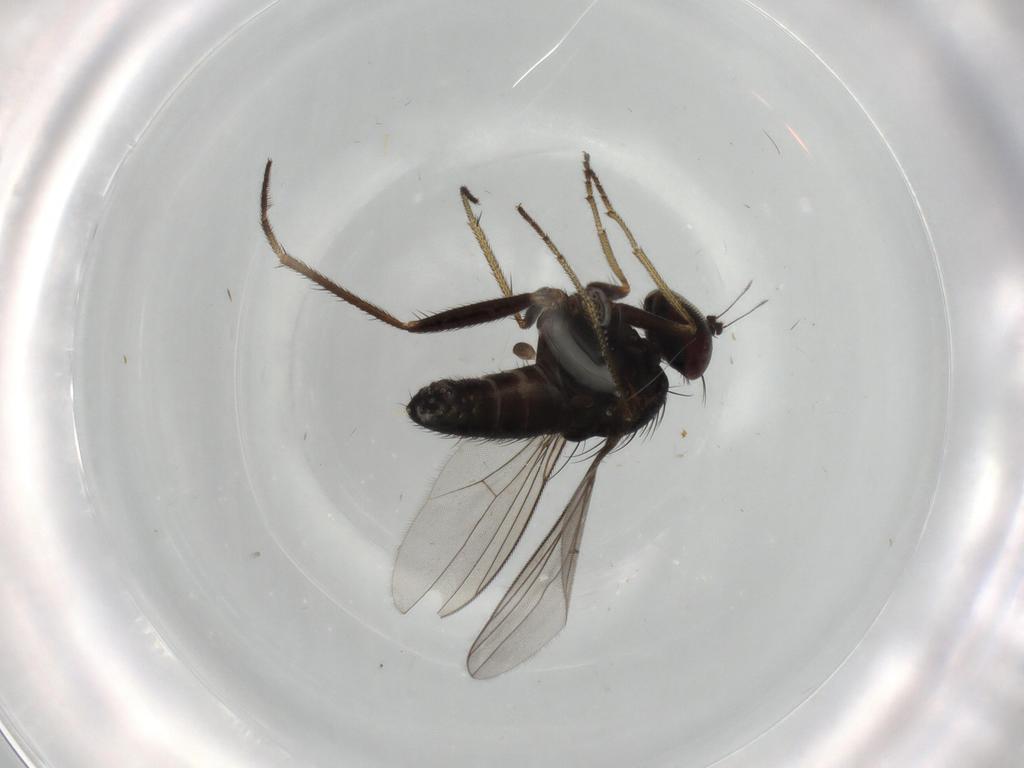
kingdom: Animalia
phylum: Arthropoda
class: Insecta
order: Diptera
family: Dolichopodidae
